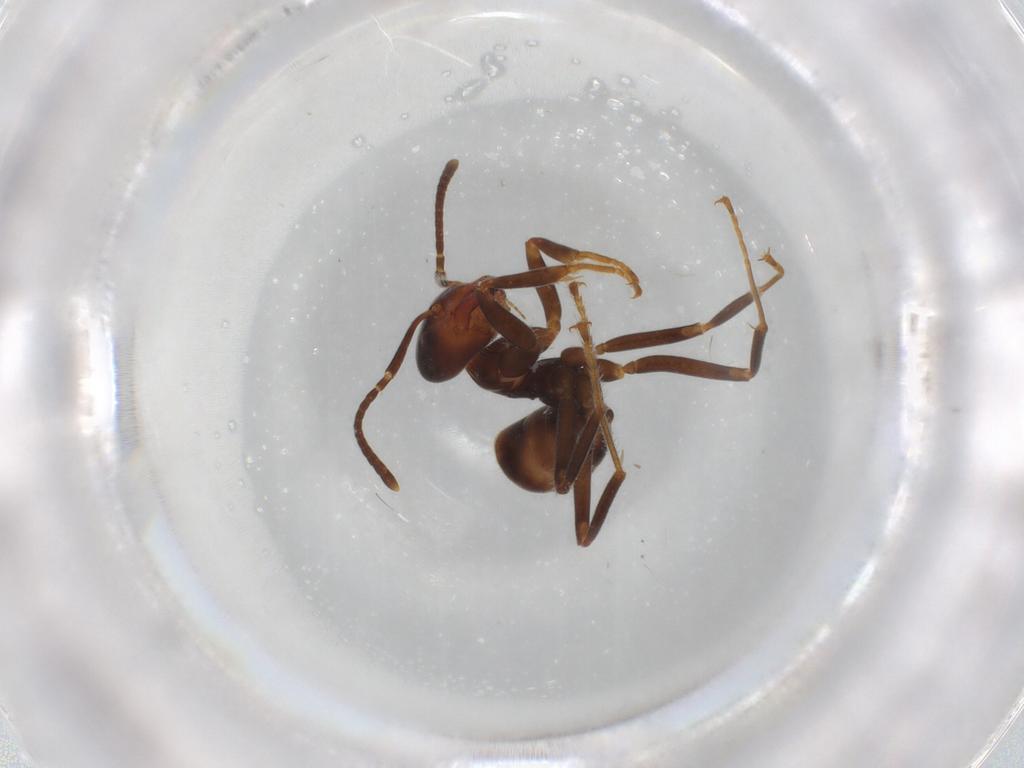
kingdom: Animalia
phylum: Arthropoda
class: Insecta
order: Hymenoptera
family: Formicidae
